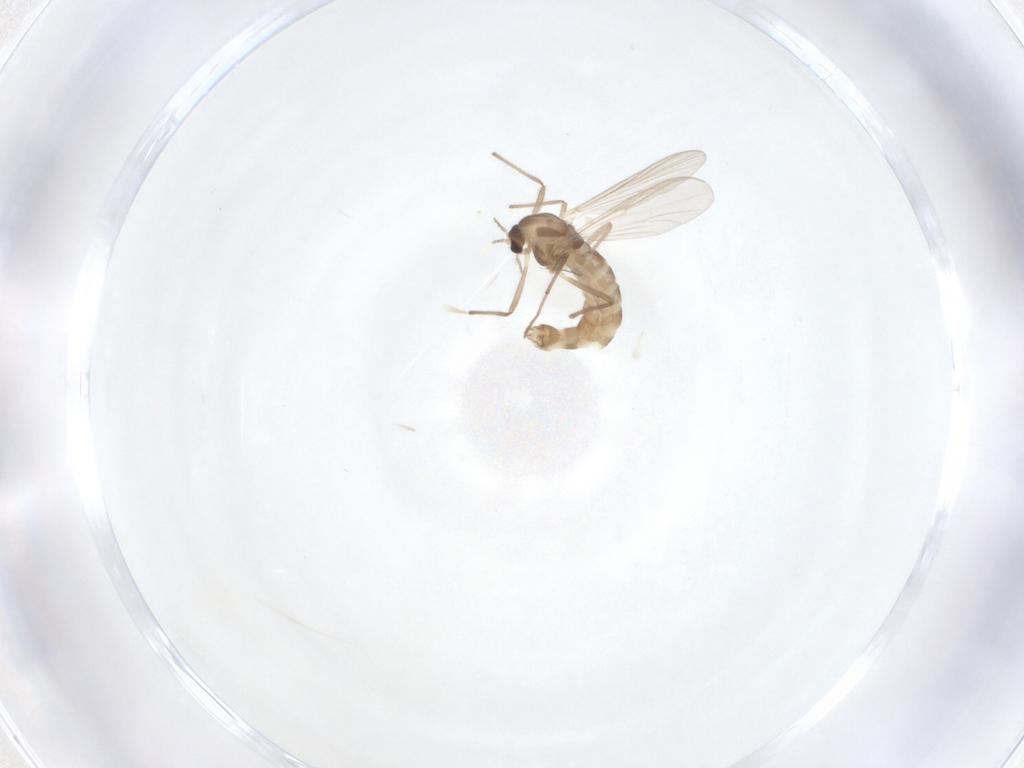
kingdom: Animalia
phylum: Arthropoda
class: Insecta
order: Diptera
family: Chironomidae
